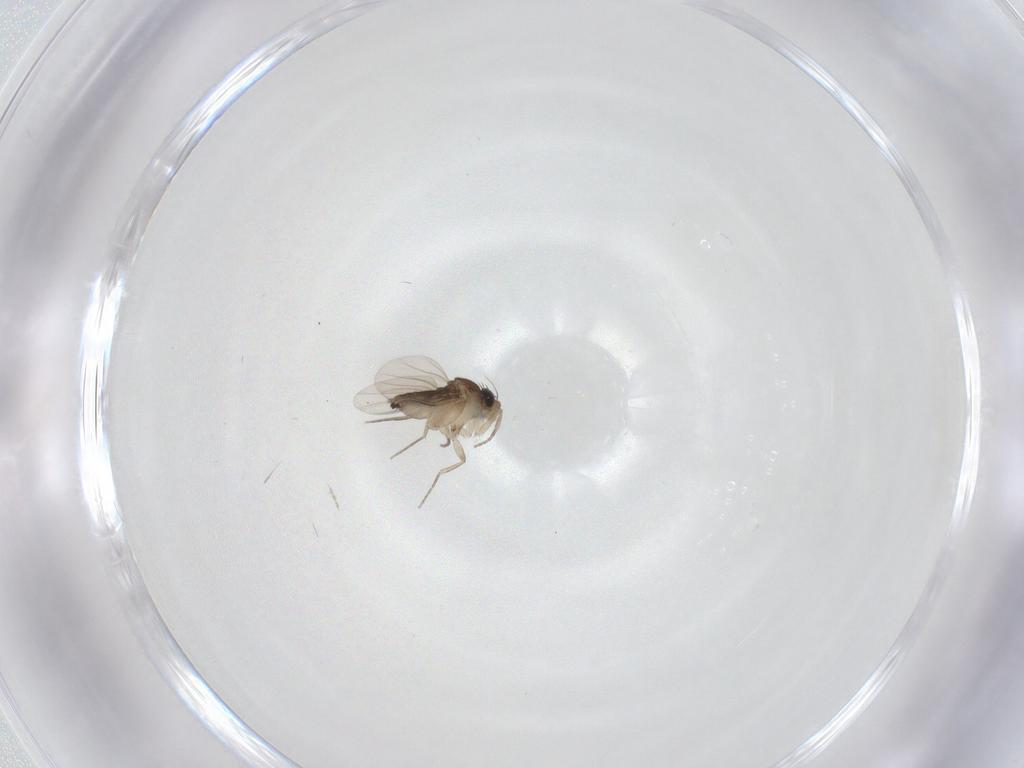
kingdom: Animalia
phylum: Arthropoda
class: Insecta
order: Diptera
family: Phoridae
